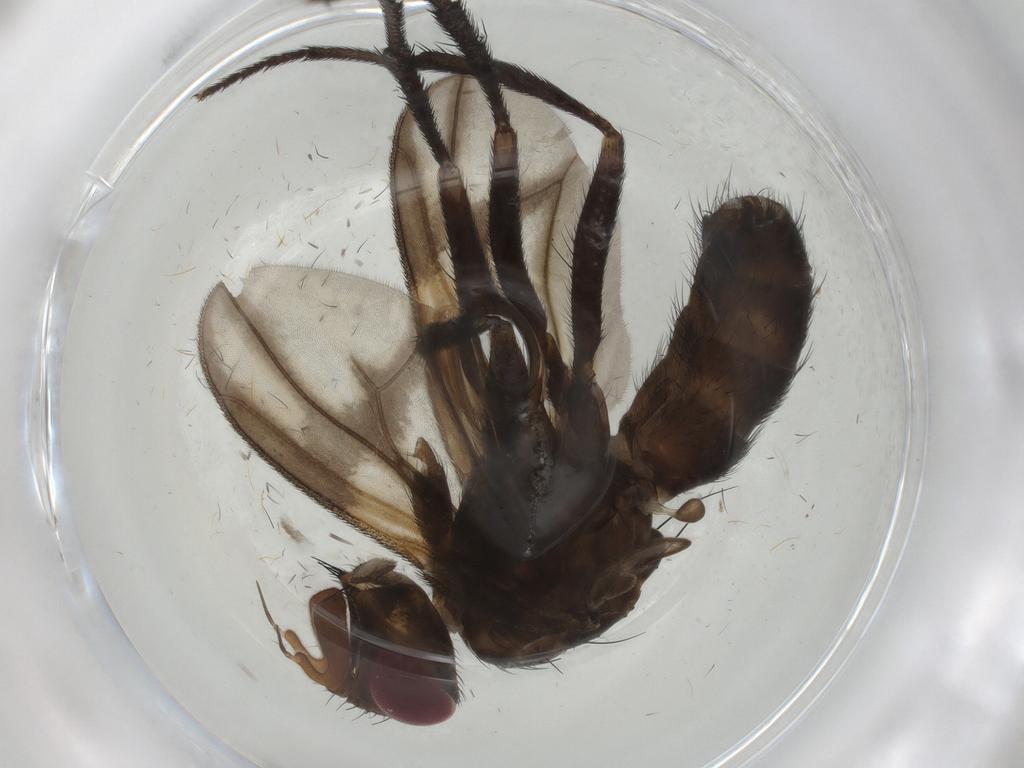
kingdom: Animalia
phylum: Arthropoda
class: Insecta
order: Diptera
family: Calliphoridae
